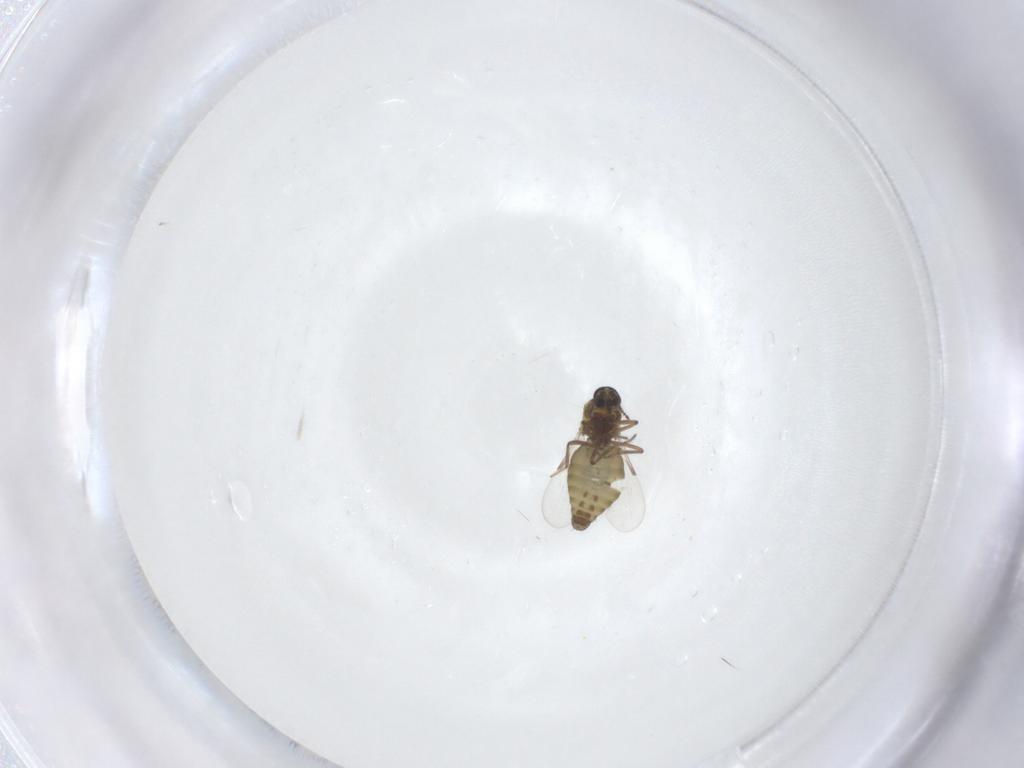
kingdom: Animalia
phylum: Arthropoda
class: Insecta
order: Diptera
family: Ceratopogonidae
